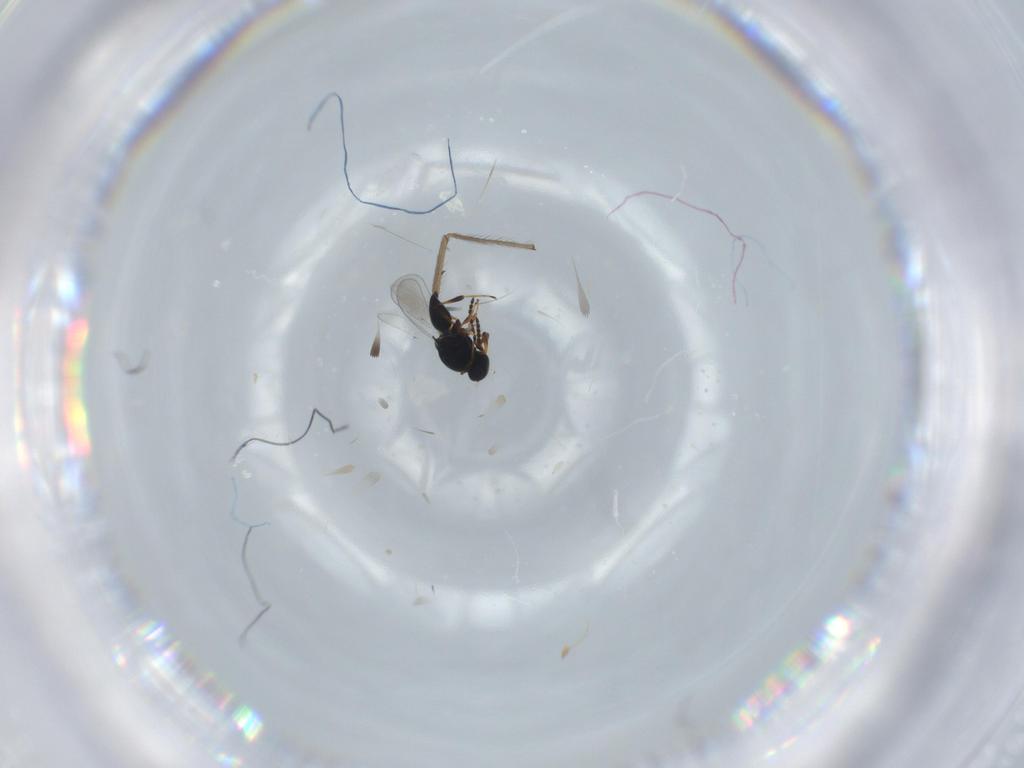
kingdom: Animalia
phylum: Arthropoda
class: Insecta
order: Hymenoptera
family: Platygastridae
